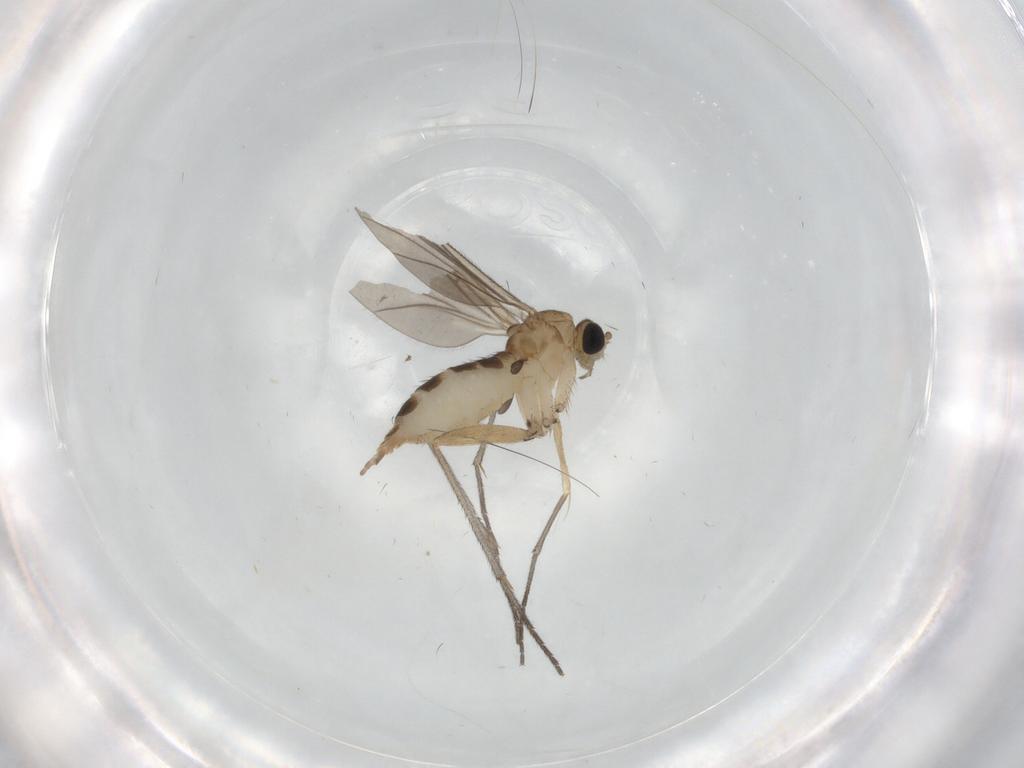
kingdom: Animalia
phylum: Arthropoda
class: Insecta
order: Diptera
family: Sciaridae
